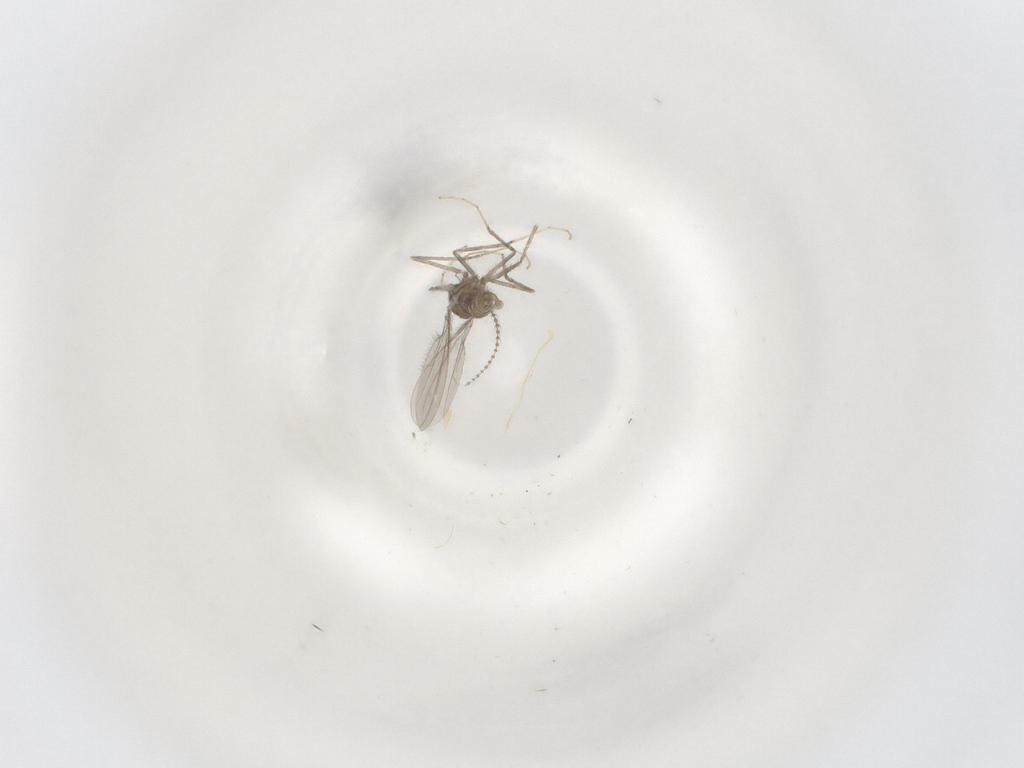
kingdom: Animalia
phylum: Arthropoda
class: Insecta
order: Diptera
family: Cecidomyiidae
